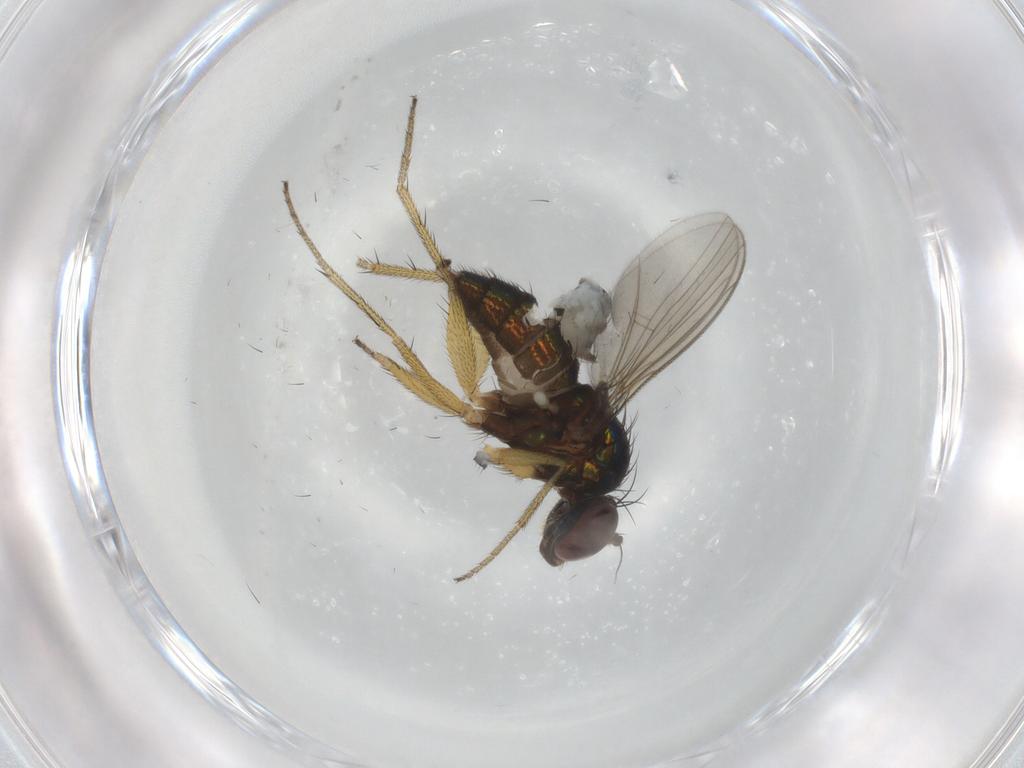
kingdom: Animalia
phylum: Arthropoda
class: Insecta
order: Diptera
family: Dolichopodidae
